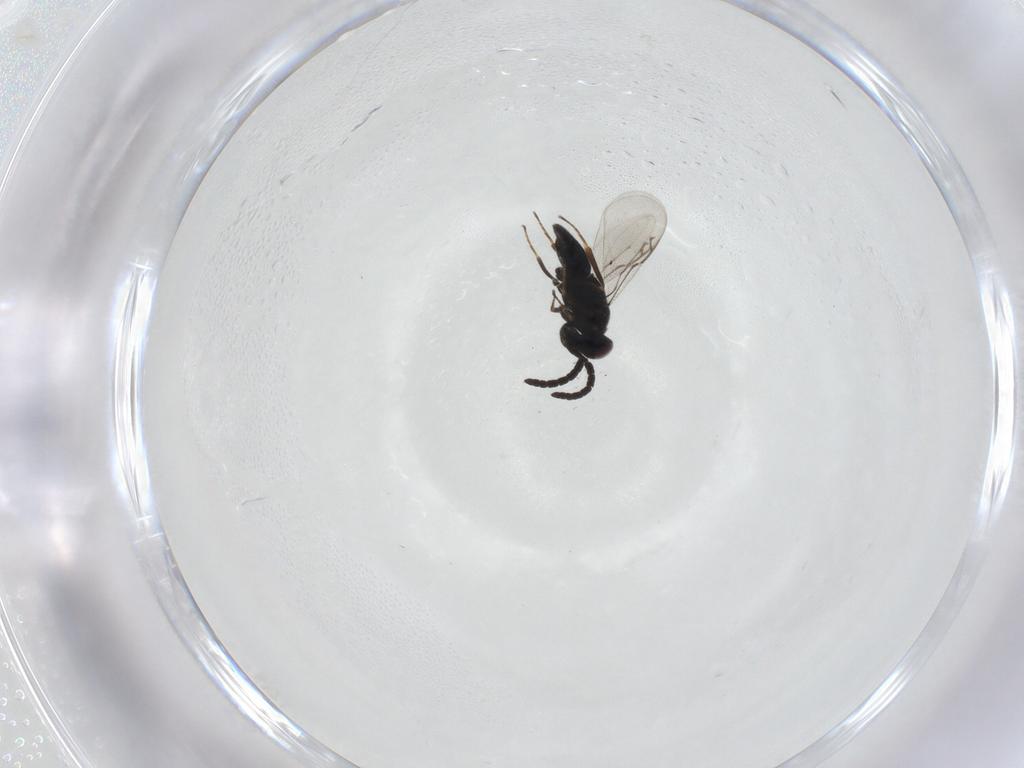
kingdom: Animalia
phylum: Arthropoda
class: Insecta
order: Hymenoptera
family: Eunotidae
